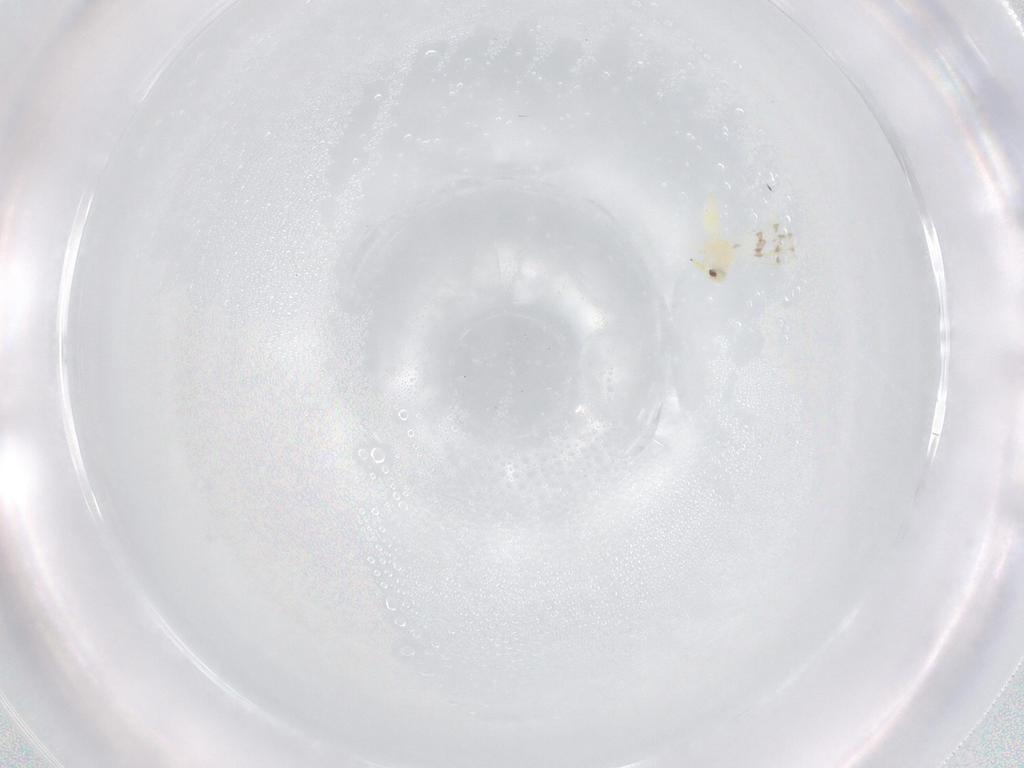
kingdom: Animalia
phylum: Arthropoda
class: Insecta
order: Hemiptera
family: Aleyrodidae
